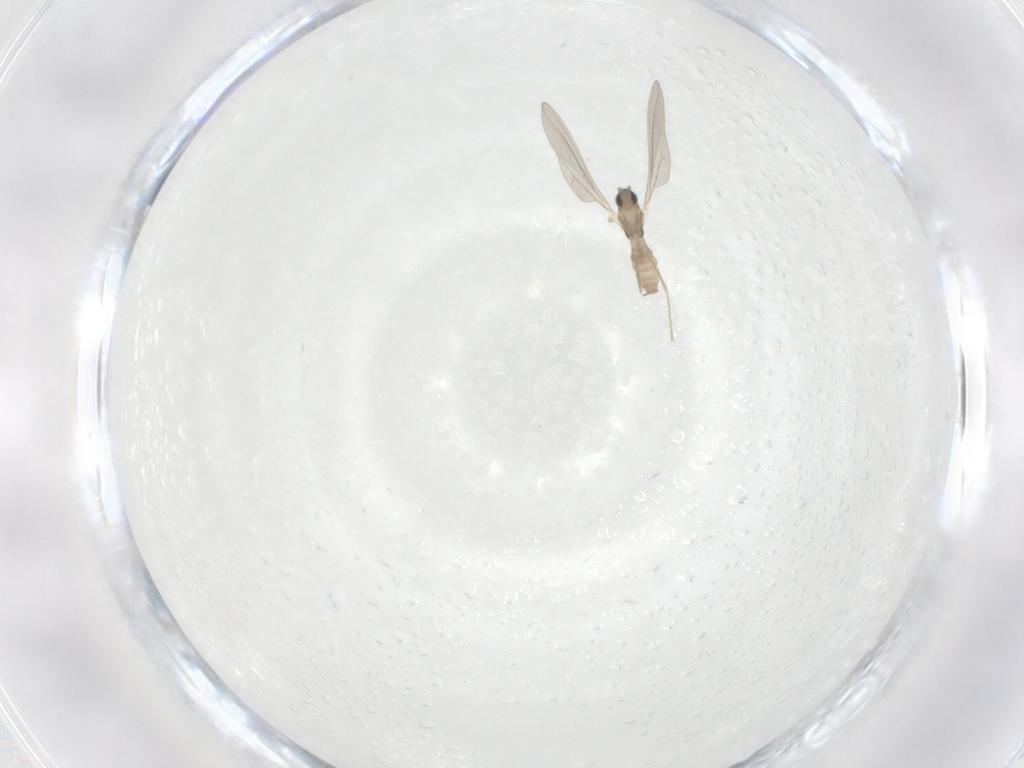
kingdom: Animalia
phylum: Arthropoda
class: Insecta
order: Diptera
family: Cecidomyiidae
